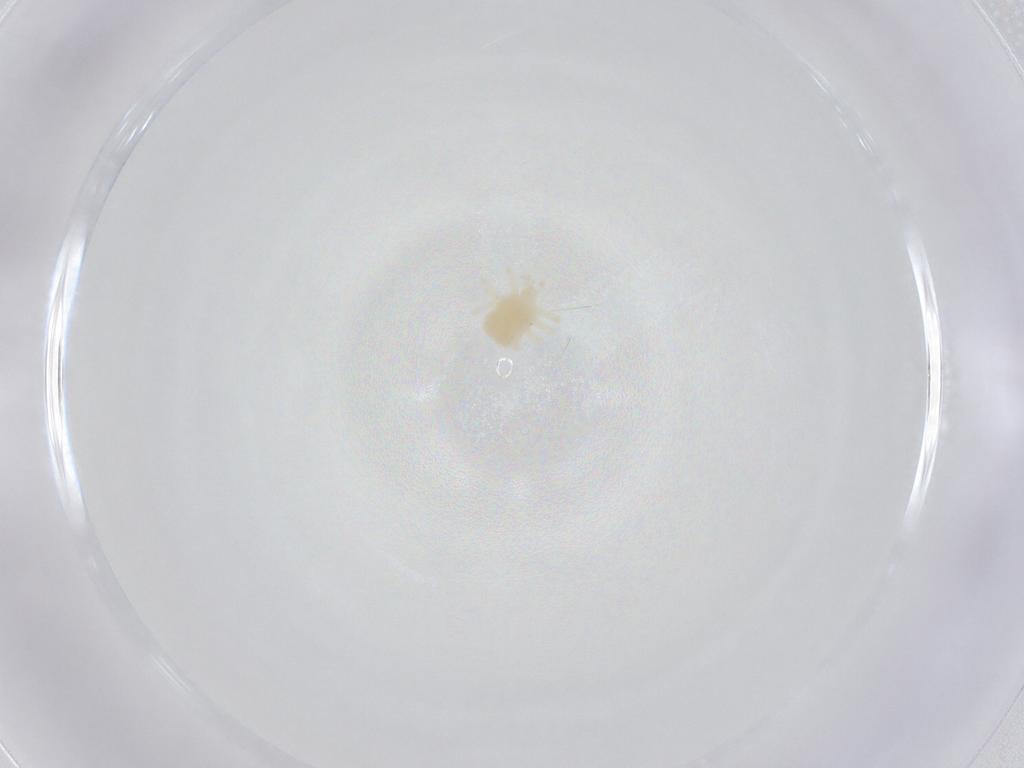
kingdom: Animalia
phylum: Arthropoda
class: Arachnida
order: Trombidiformes
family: Anystidae
